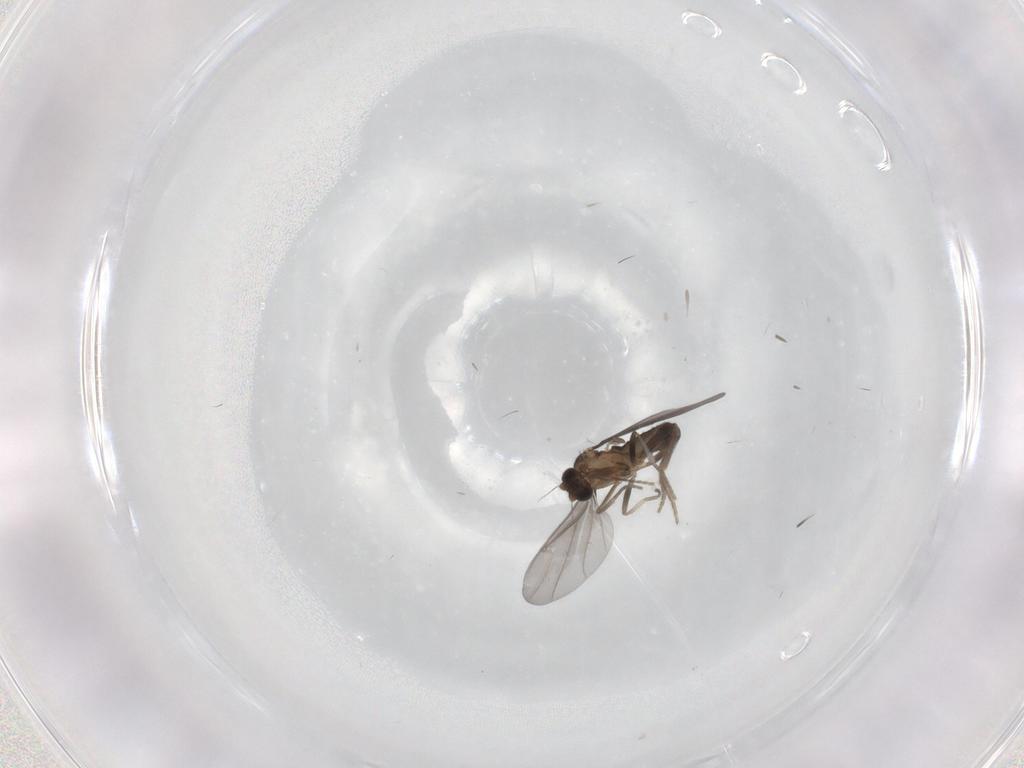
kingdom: Animalia
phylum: Arthropoda
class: Insecta
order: Diptera
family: Phoridae
